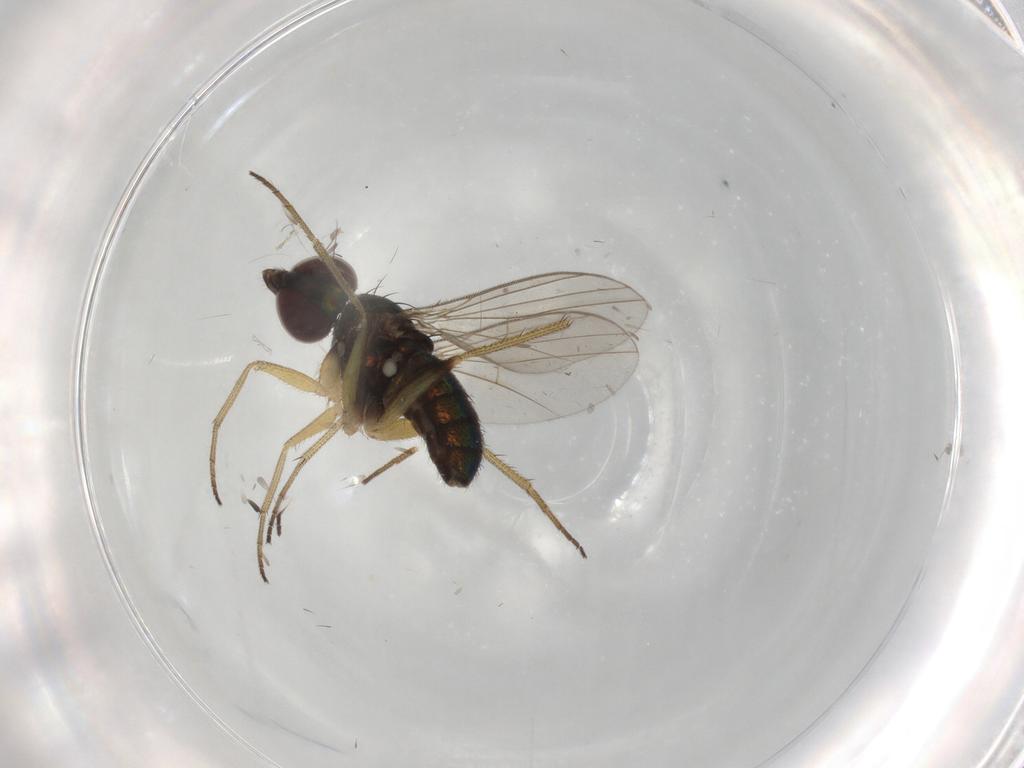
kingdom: Animalia
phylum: Arthropoda
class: Insecta
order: Diptera
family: Dolichopodidae
